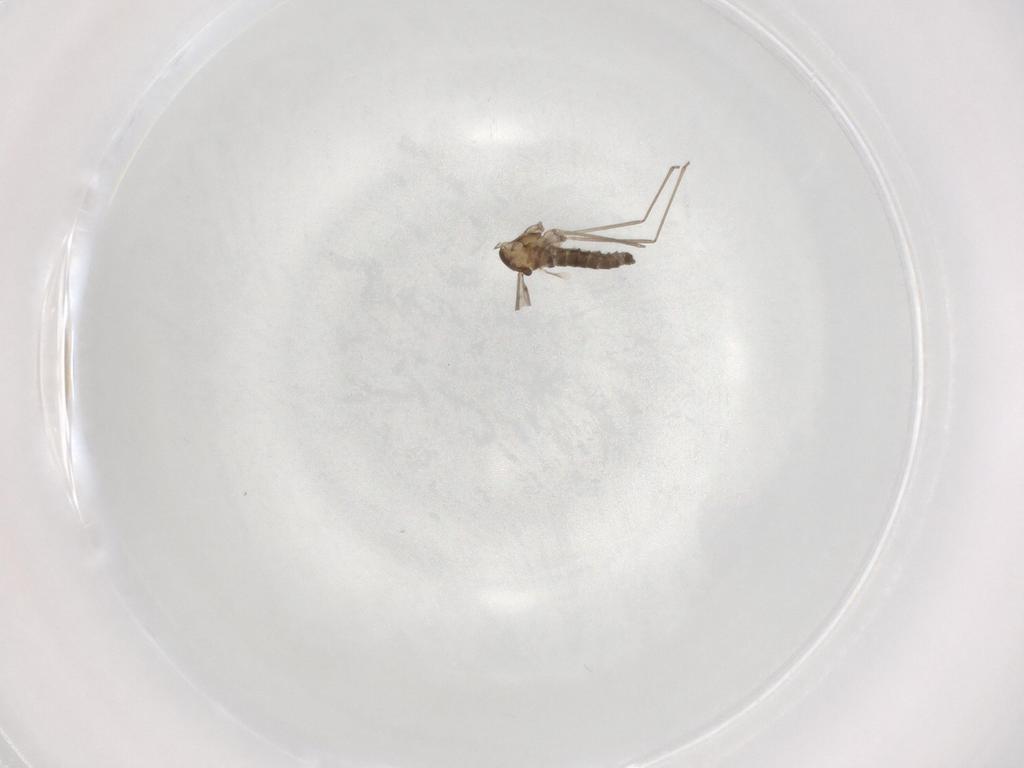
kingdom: Animalia
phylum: Arthropoda
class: Insecta
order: Diptera
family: Cecidomyiidae
